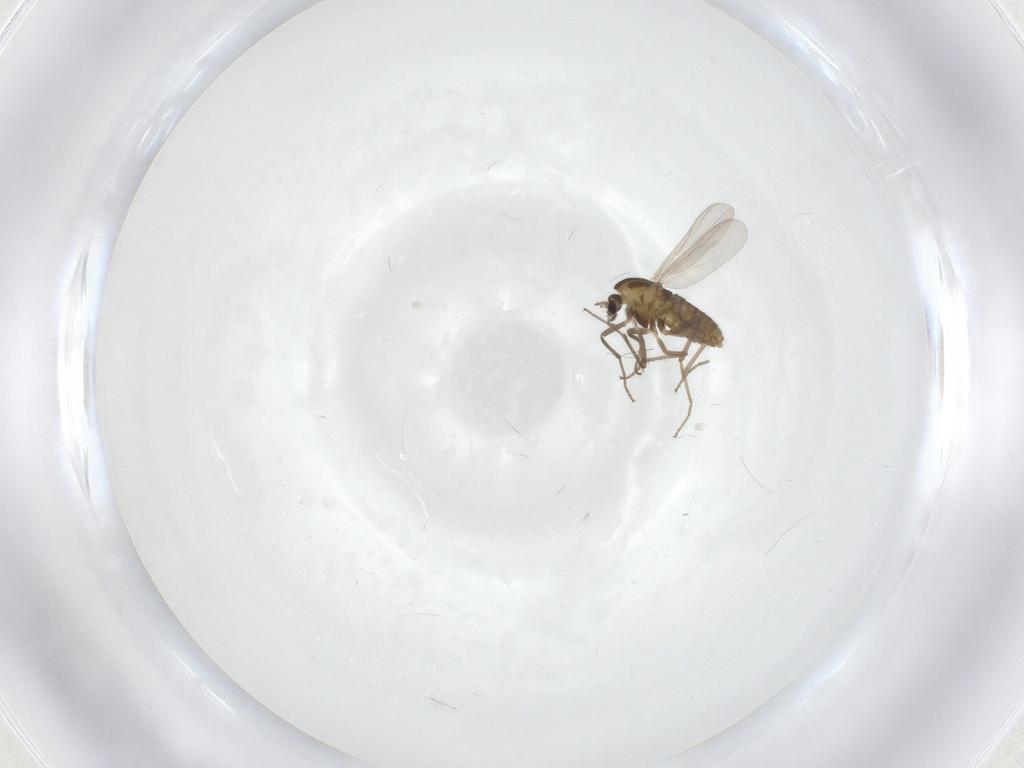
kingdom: Animalia
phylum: Arthropoda
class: Insecta
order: Diptera
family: Chironomidae
